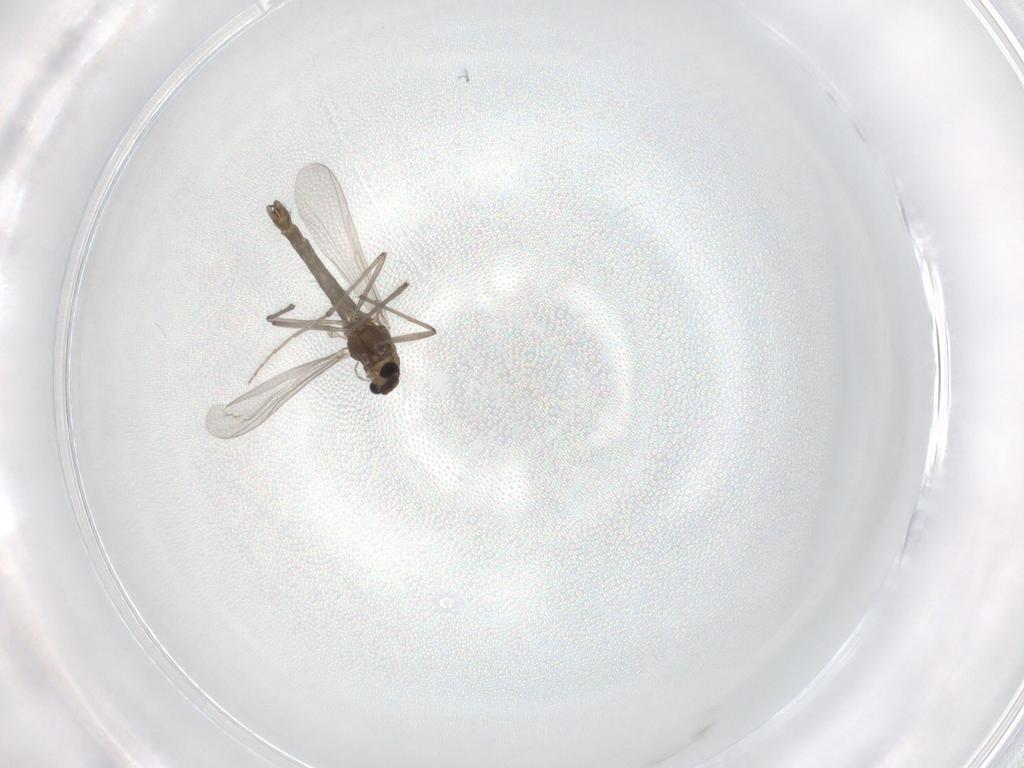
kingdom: Animalia
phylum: Arthropoda
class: Insecta
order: Diptera
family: Chironomidae
